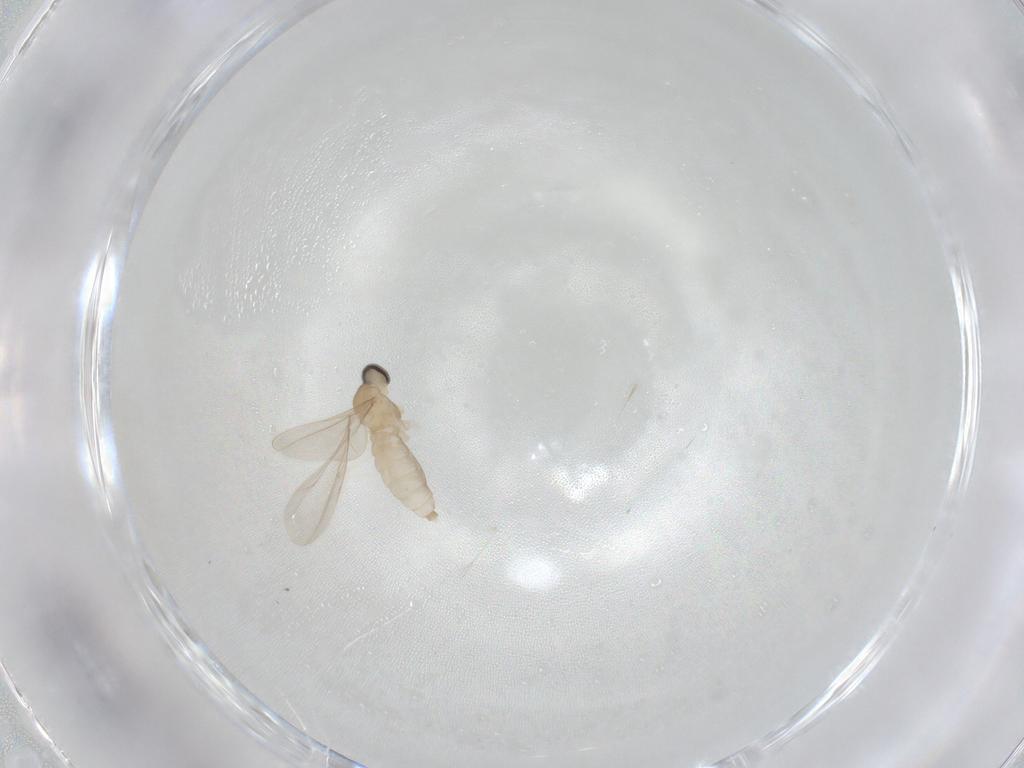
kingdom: Animalia
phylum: Arthropoda
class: Insecta
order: Diptera
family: Cecidomyiidae
